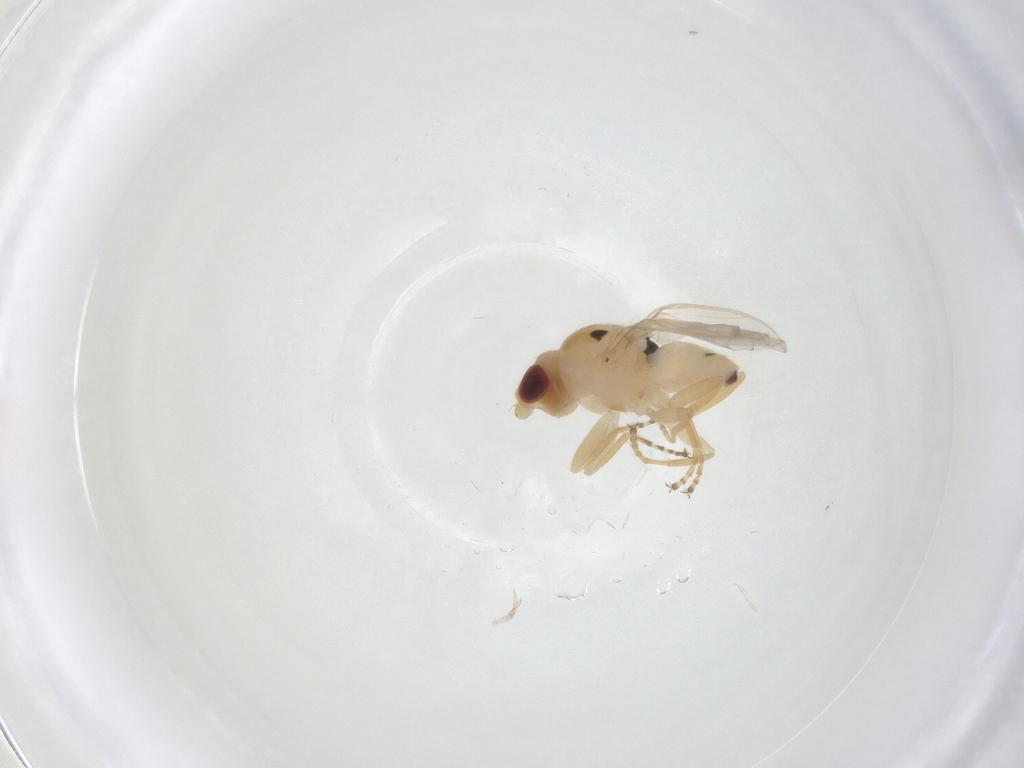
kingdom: Animalia
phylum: Arthropoda
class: Insecta
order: Diptera
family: Chloropidae
